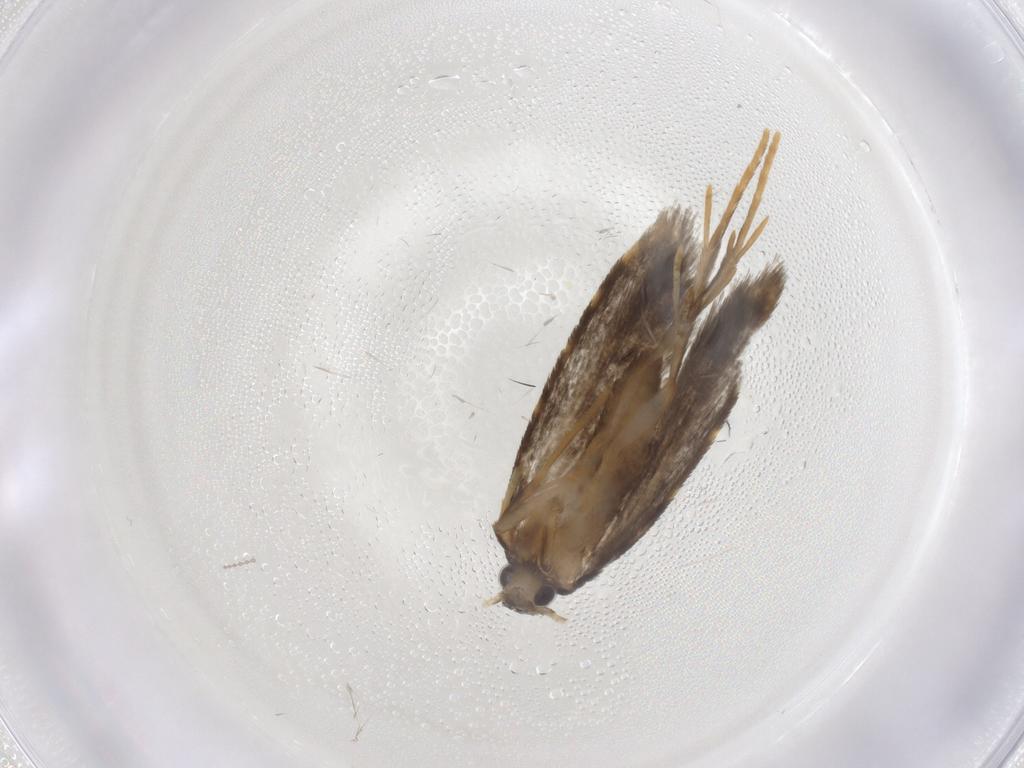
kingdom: Animalia
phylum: Arthropoda
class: Insecta
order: Lepidoptera
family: Psychidae
